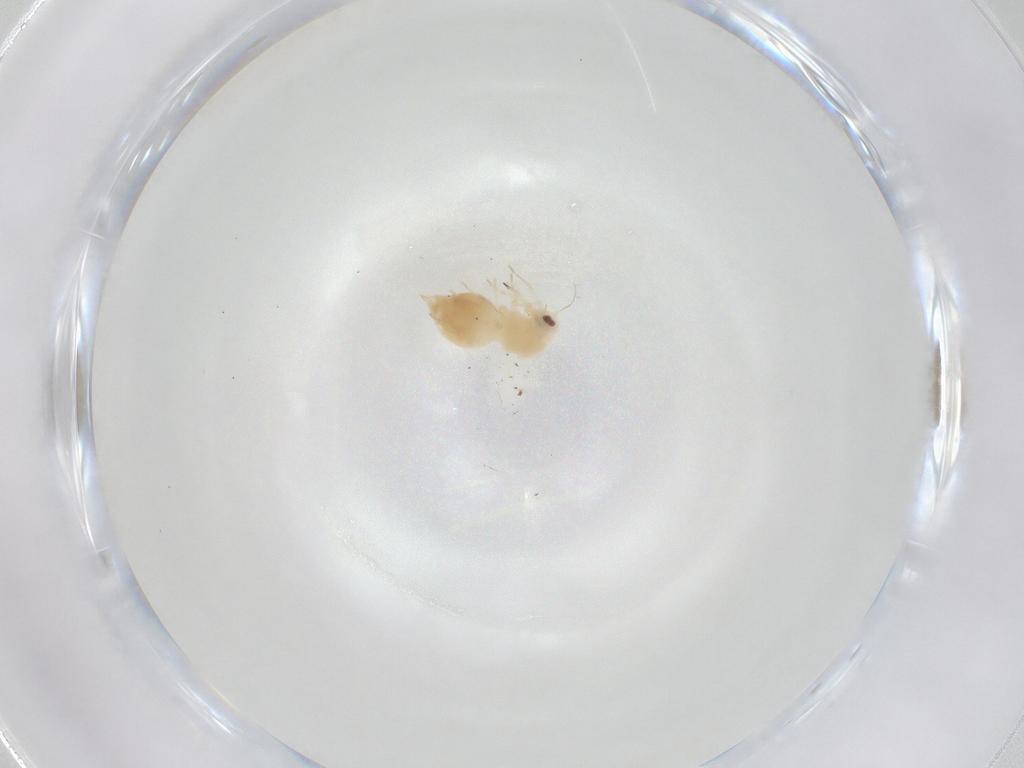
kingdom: Animalia
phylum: Arthropoda
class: Insecta
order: Hemiptera
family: Aleyrodidae
